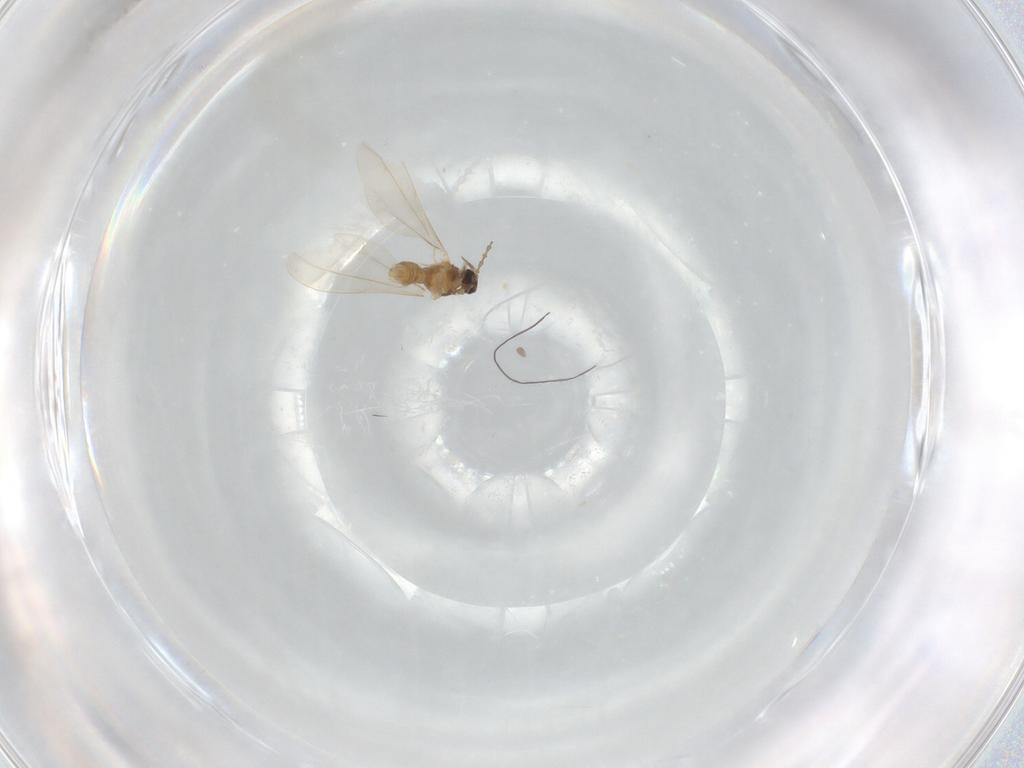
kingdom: Animalia
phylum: Arthropoda
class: Insecta
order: Diptera
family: Cecidomyiidae
